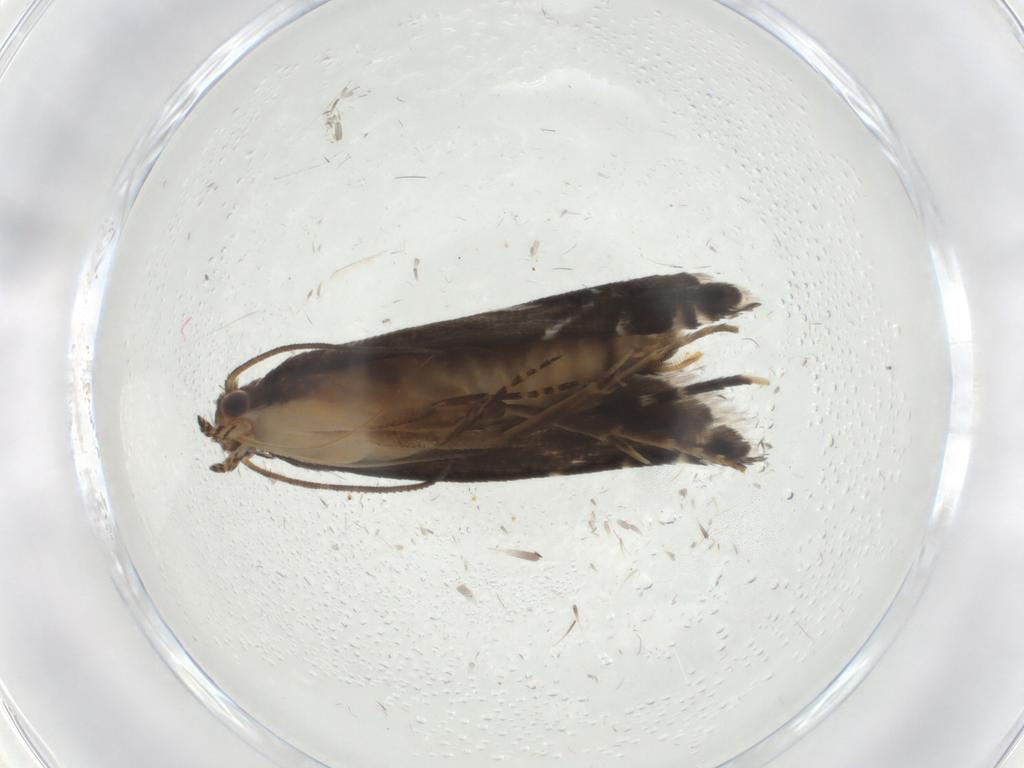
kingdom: Animalia
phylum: Arthropoda
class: Insecta
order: Lepidoptera
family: Glyphipterigidae
